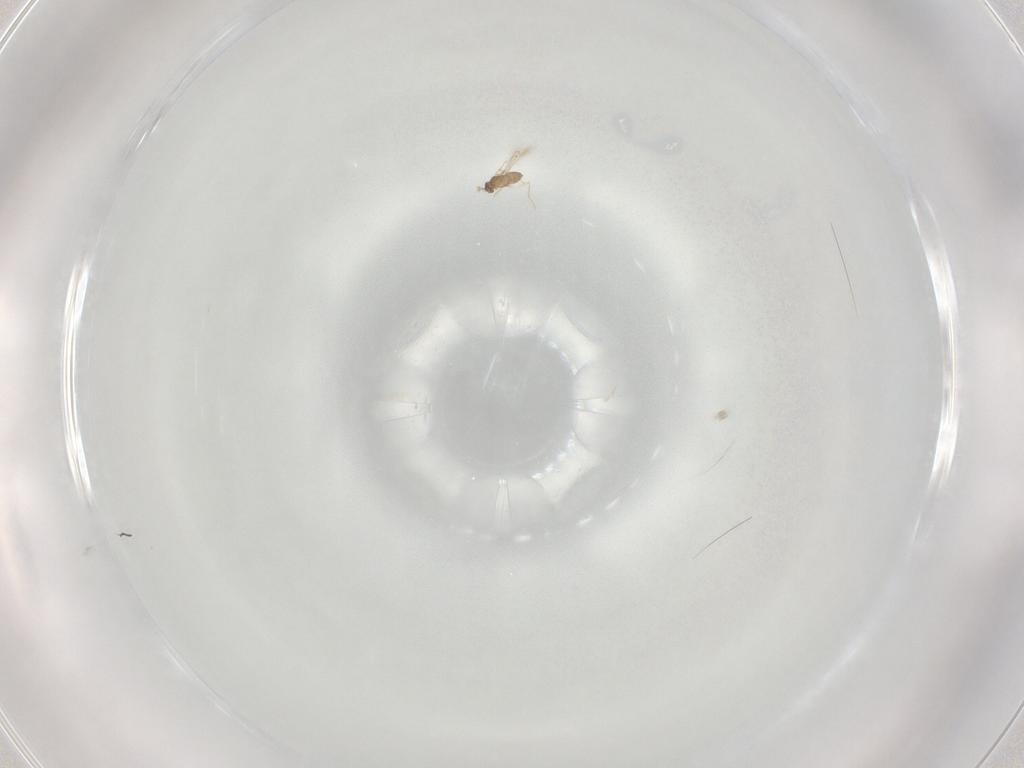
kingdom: Animalia
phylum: Arthropoda
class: Insecta
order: Hymenoptera
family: Mymaridae
